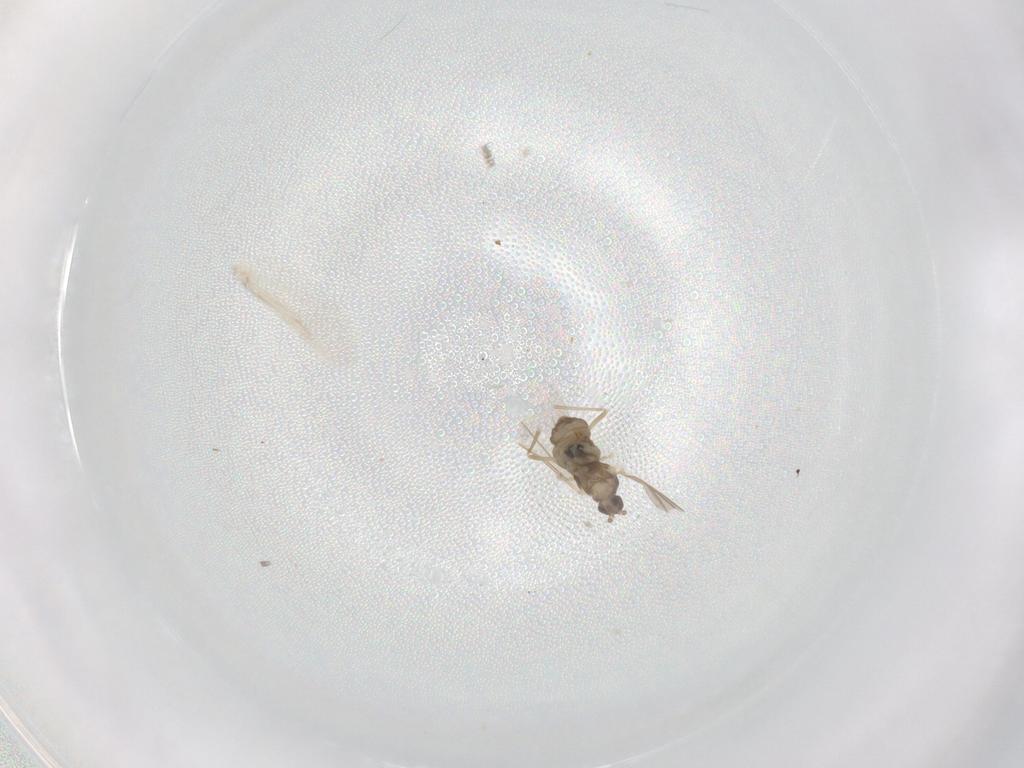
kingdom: Animalia
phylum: Arthropoda
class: Insecta
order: Diptera
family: Cecidomyiidae
